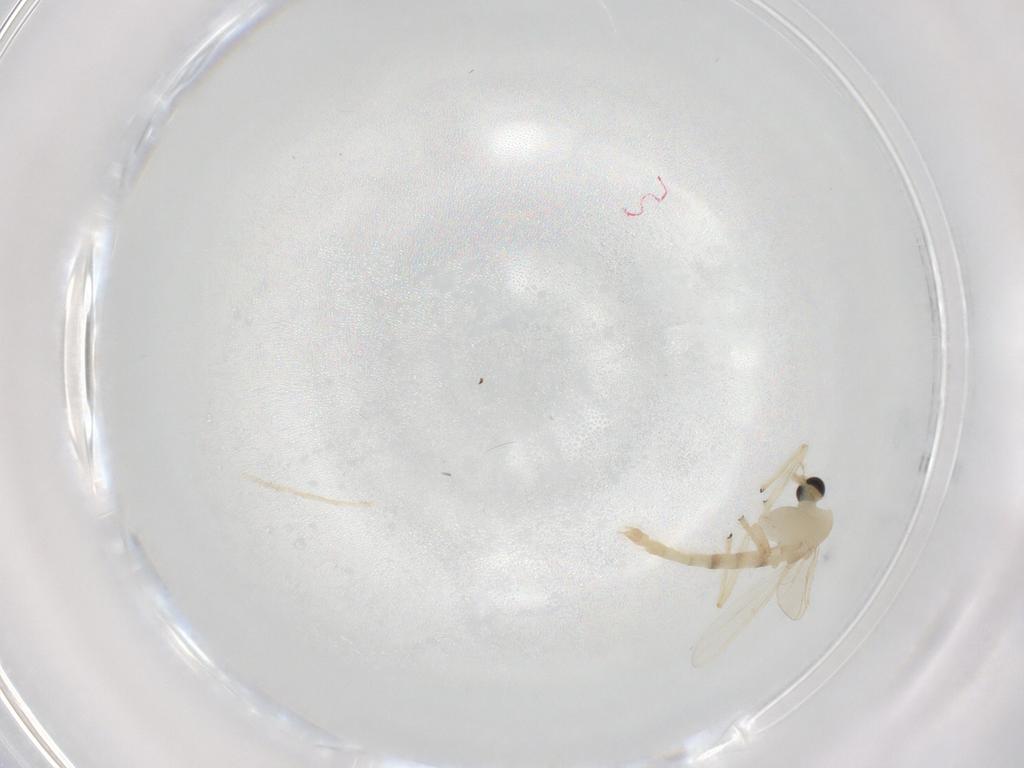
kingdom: Animalia
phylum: Arthropoda
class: Insecta
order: Diptera
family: Chironomidae
